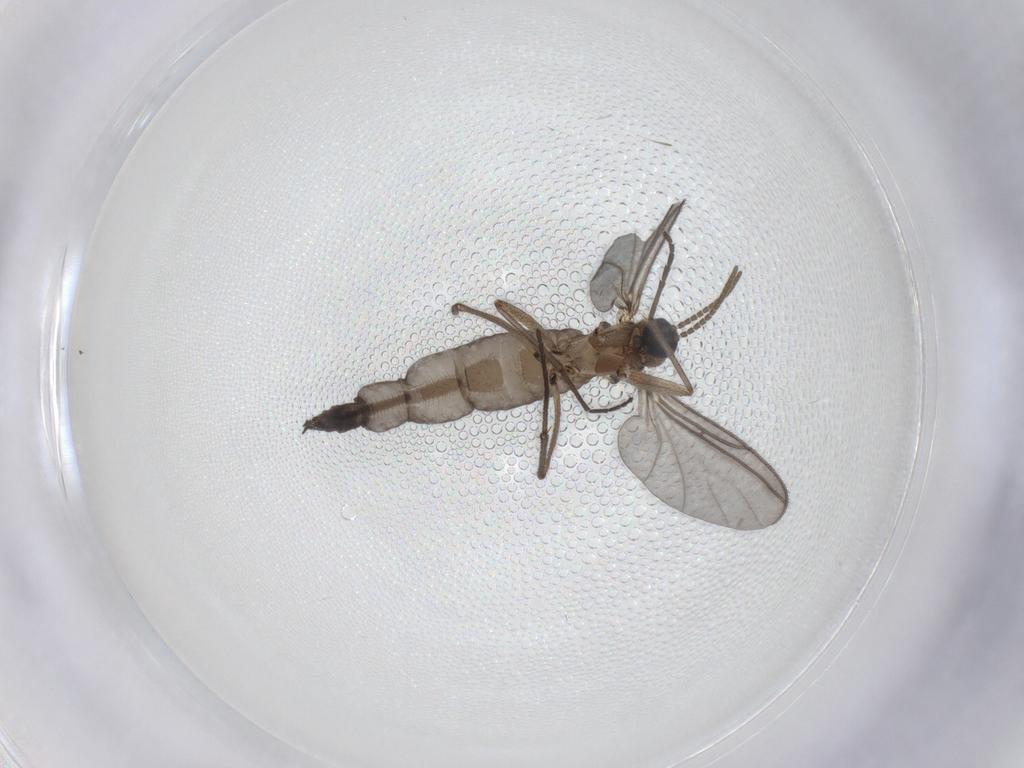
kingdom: Animalia
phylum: Arthropoda
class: Insecta
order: Diptera
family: Chironomidae
